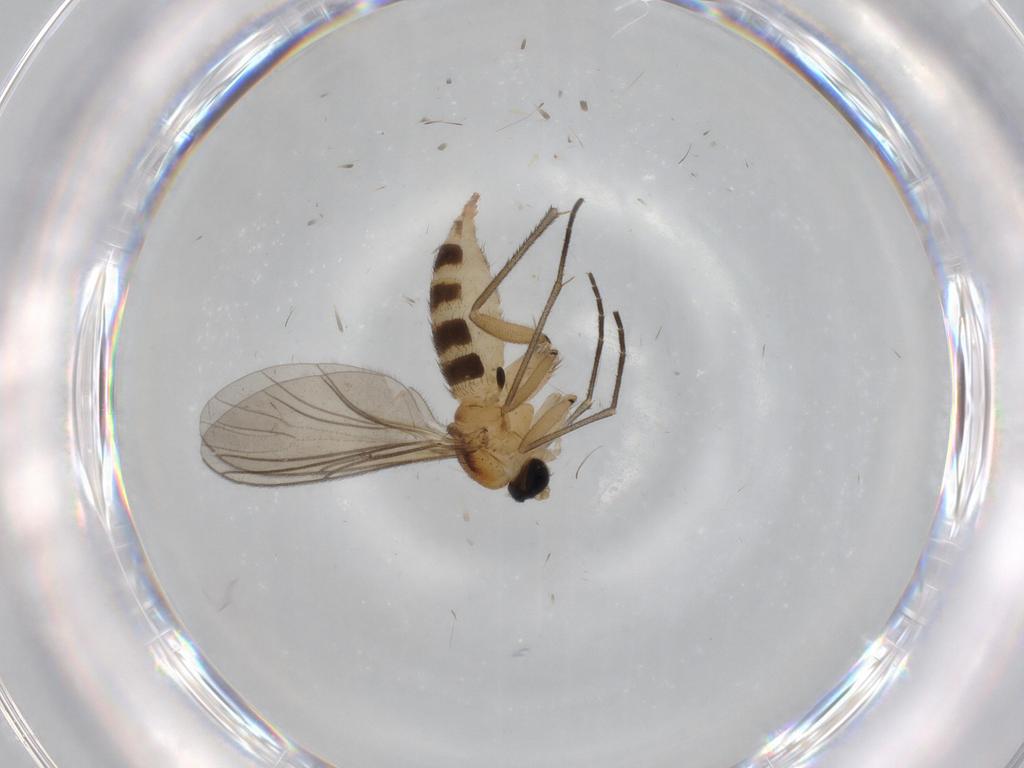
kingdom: Animalia
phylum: Arthropoda
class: Insecta
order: Diptera
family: Sciaridae
